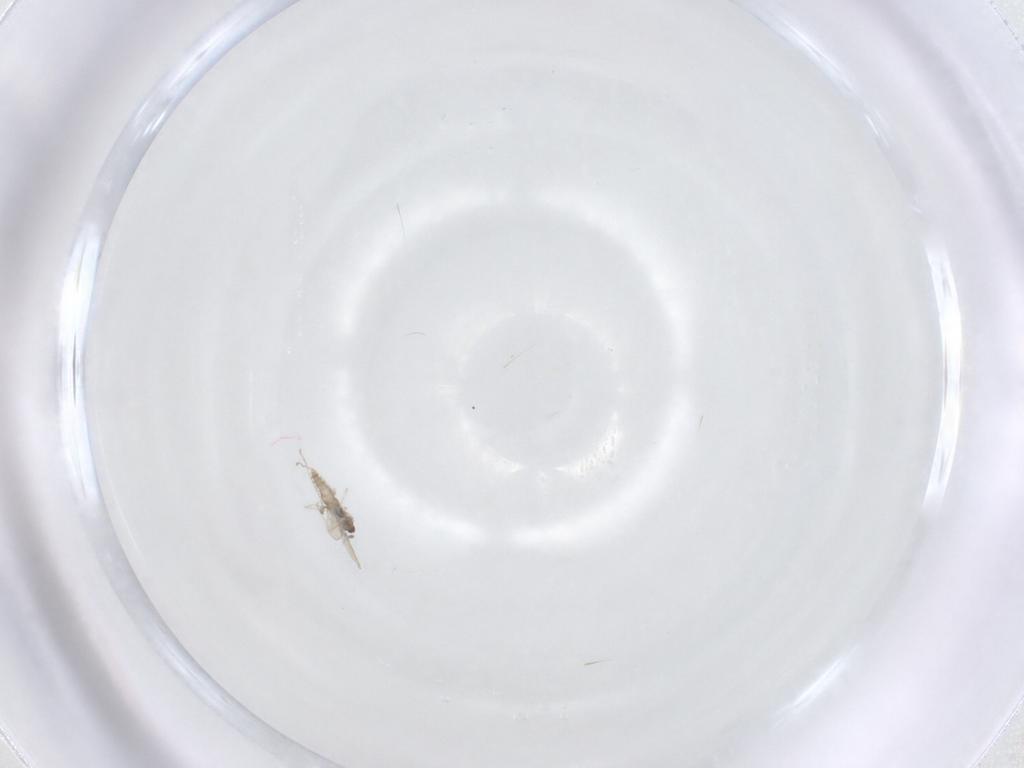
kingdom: Animalia
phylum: Arthropoda
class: Insecta
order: Diptera
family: Cecidomyiidae
